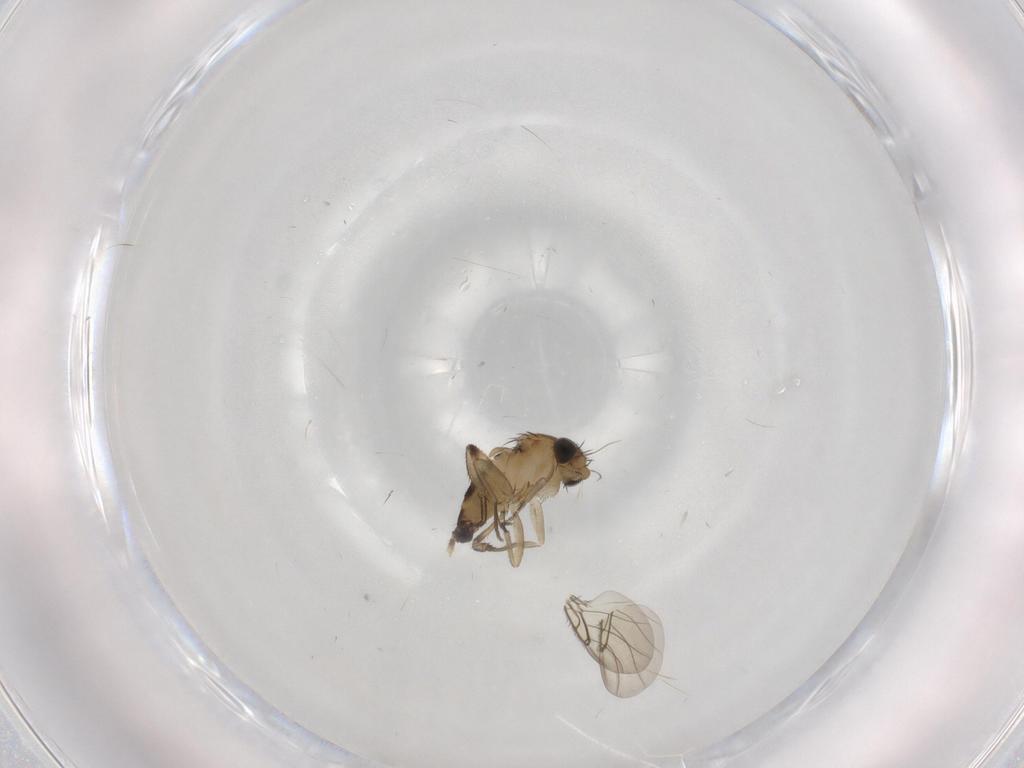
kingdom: Animalia
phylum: Arthropoda
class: Insecta
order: Diptera
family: Phoridae
